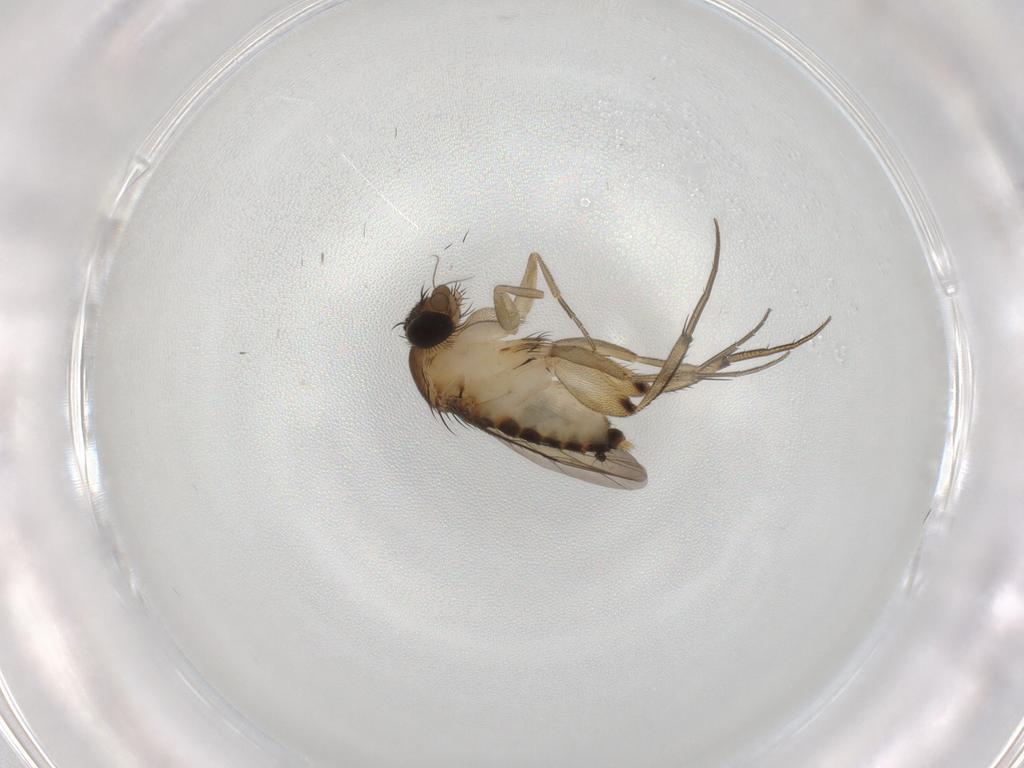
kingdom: Animalia
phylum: Arthropoda
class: Insecta
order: Diptera
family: Phoridae
